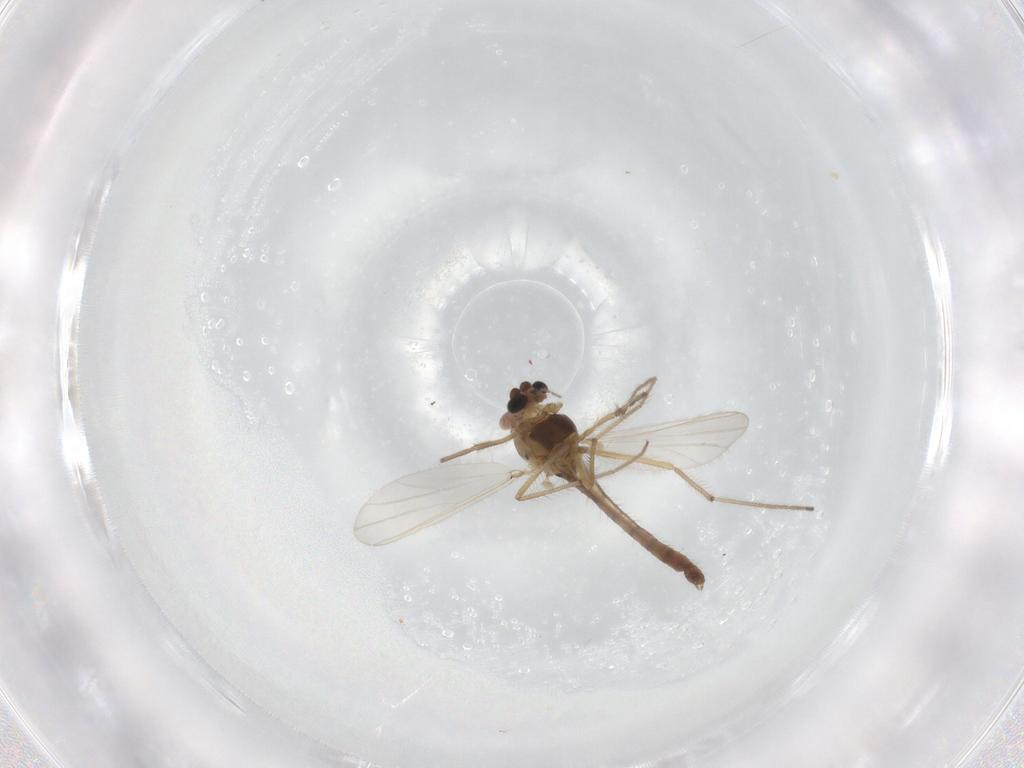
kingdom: Animalia
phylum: Arthropoda
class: Insecta
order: Diptera
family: Chironomidae
